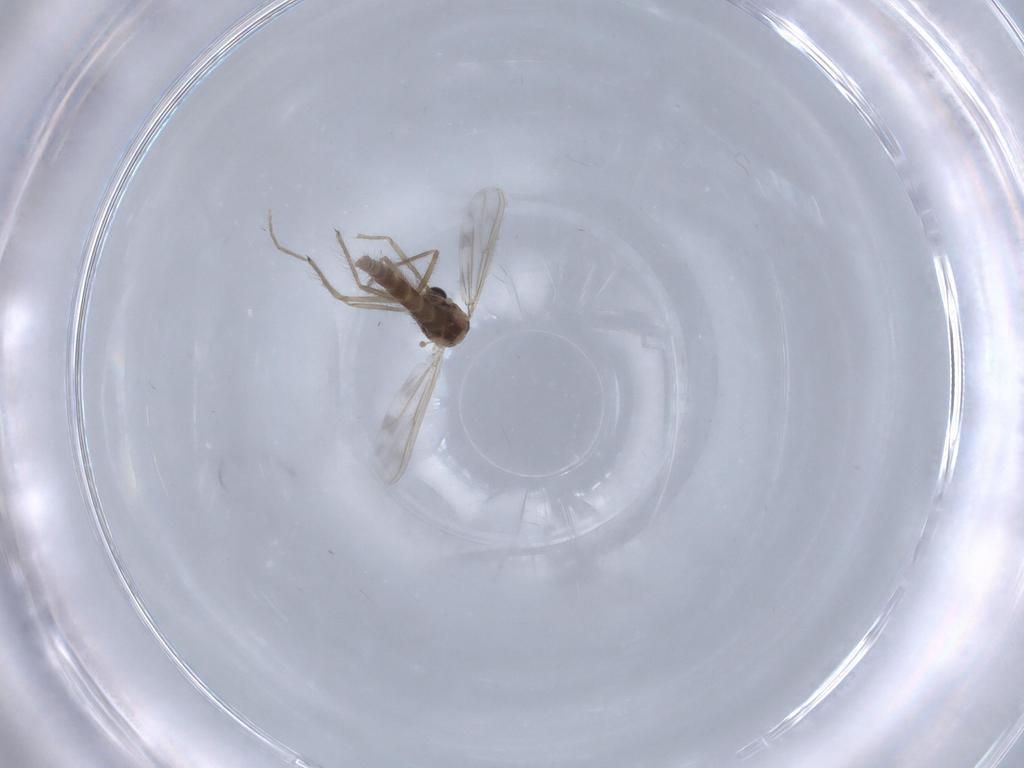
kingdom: Animalia
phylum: Arthropoda
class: Insecta
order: Diptera
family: Chironomidae
